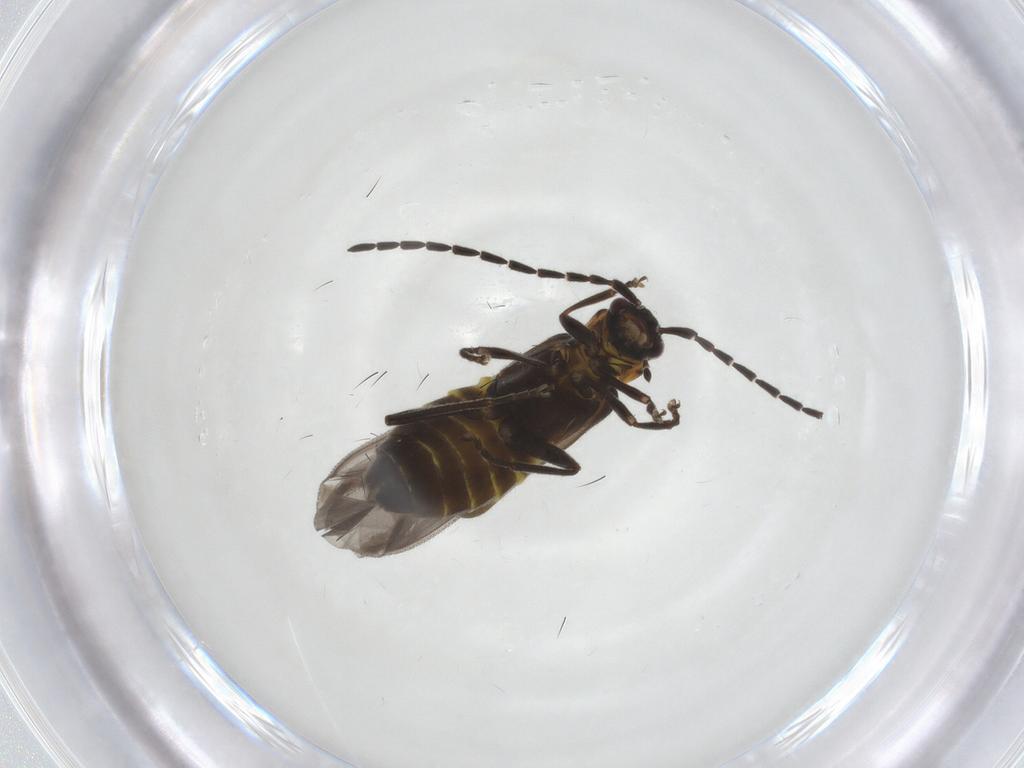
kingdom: Animalia
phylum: Arthropoda
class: Insecta
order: Coleoptera
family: Cantharidae
